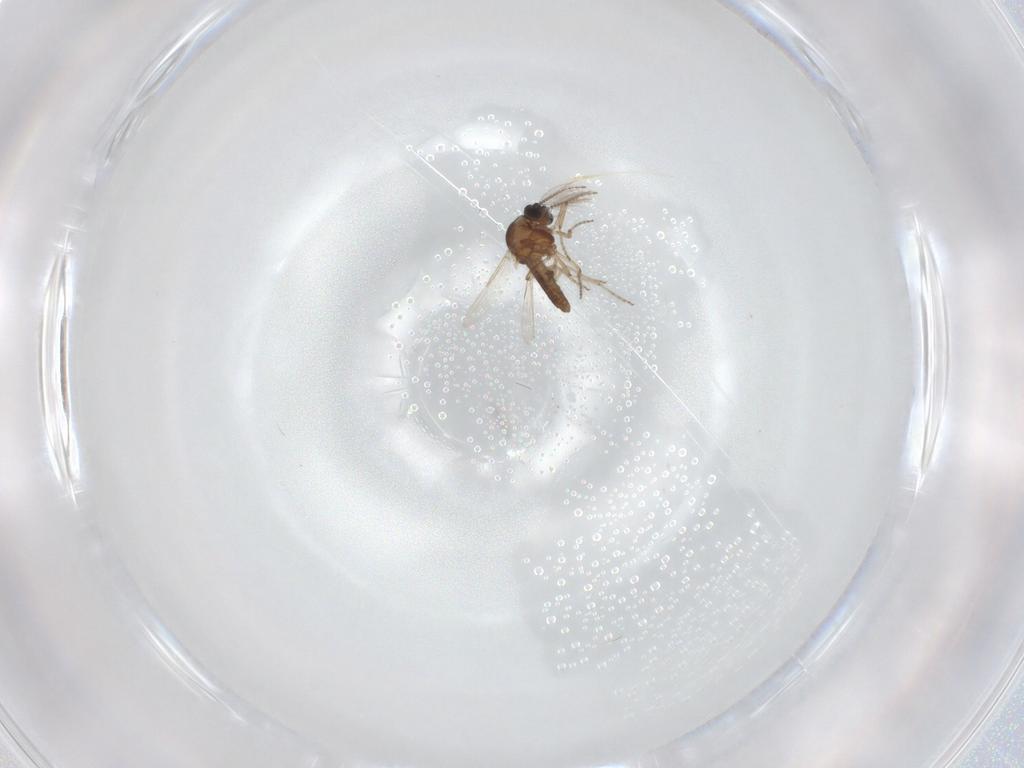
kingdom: Animalia
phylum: Arthropoda
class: Insecta
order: Diptera
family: Ceratopogonidae
